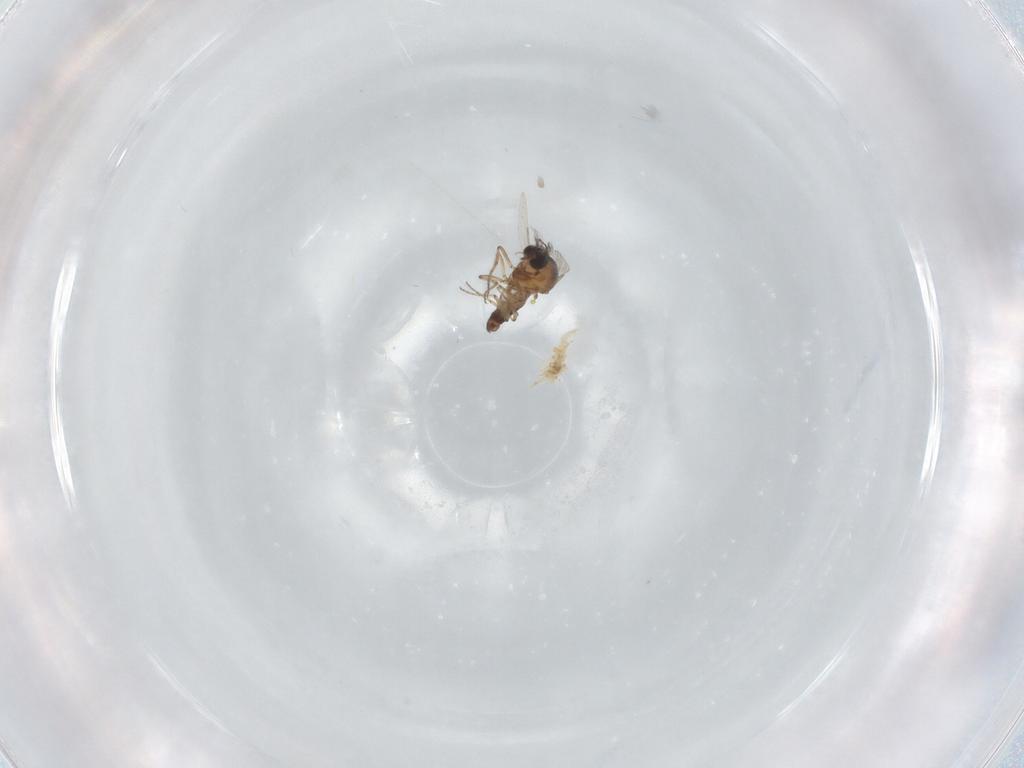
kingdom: Animalia
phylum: Arthropoda
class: Insecta
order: Diptera
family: Ceratopogonidae
